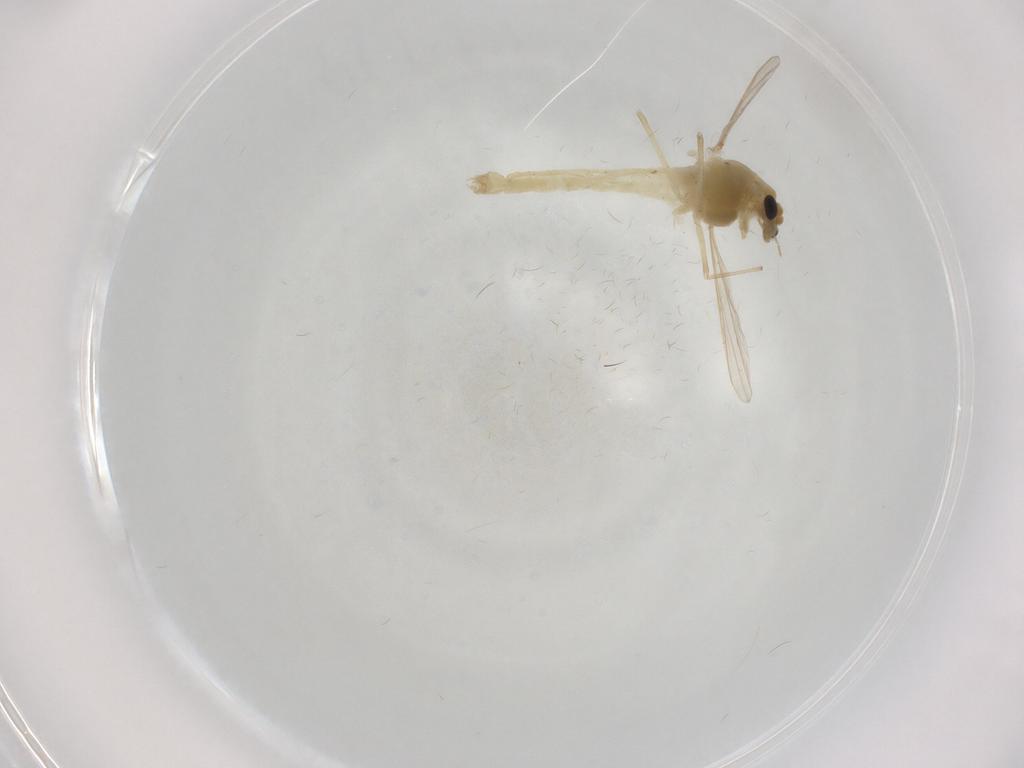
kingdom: Animalia
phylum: Arthropoda
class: Insecta
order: Diptera
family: Chironomidae
